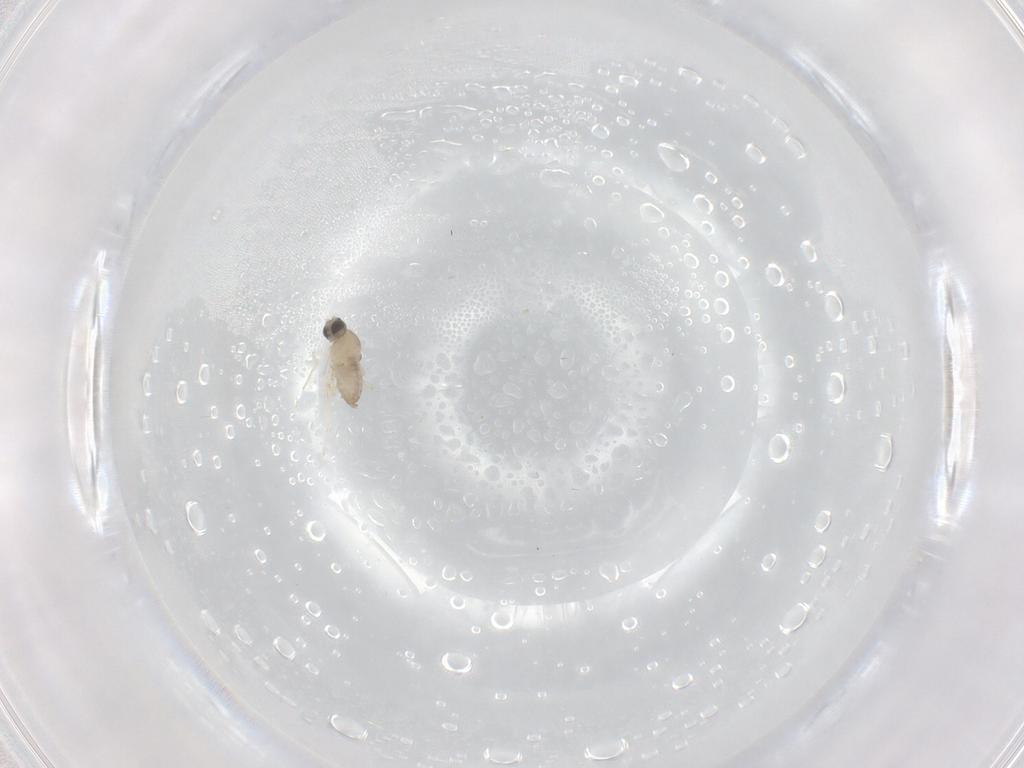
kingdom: Animalia
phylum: Arthropoda
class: Insecta
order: Diptera
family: Cecidomyiidae
